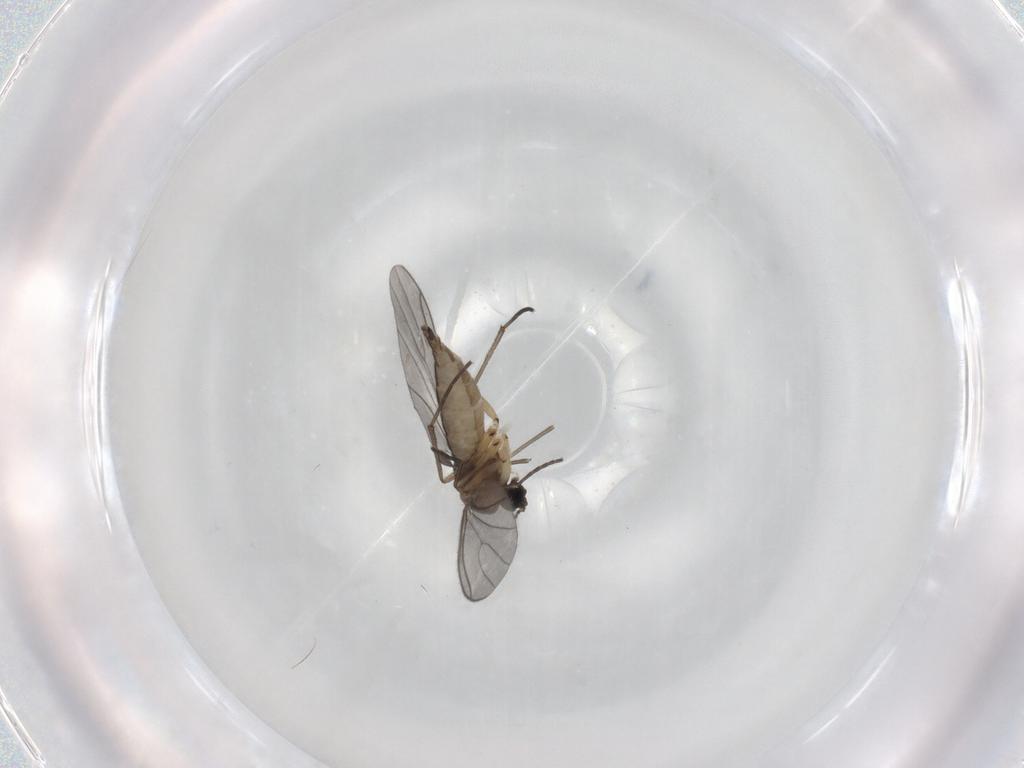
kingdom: Animalia
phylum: Arthropoda
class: Insecta
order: Diptera
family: Sciaridae
